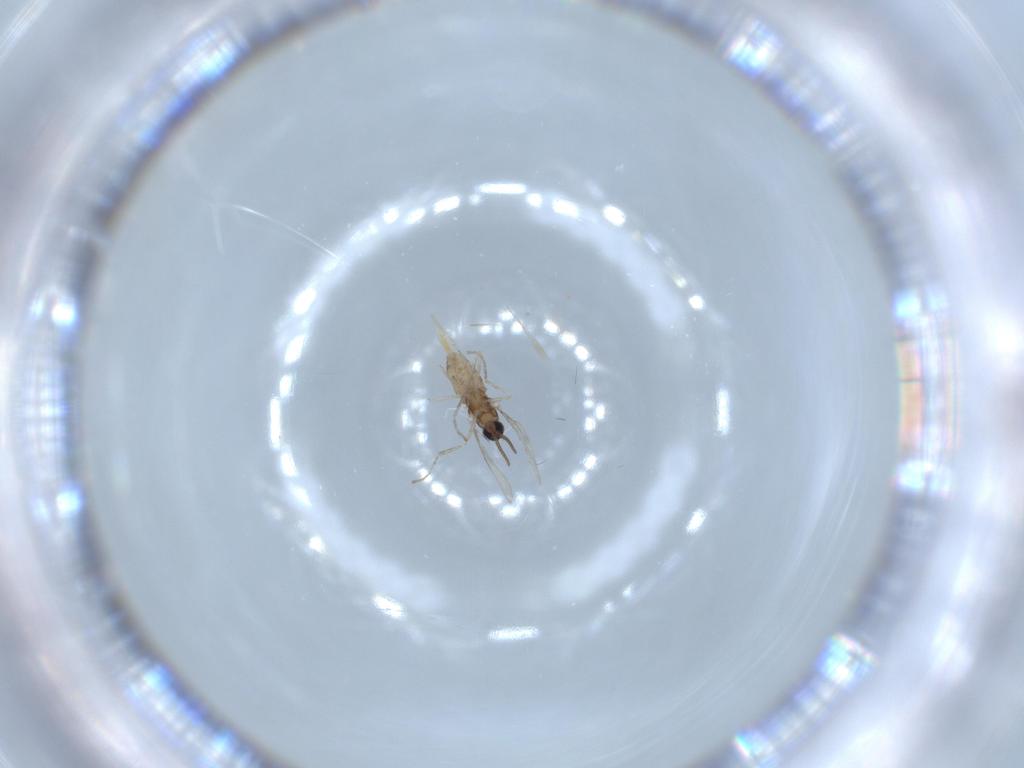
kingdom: Animalia
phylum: Arthropoda
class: Insecta
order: Diptera
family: Cecidomyiidae
